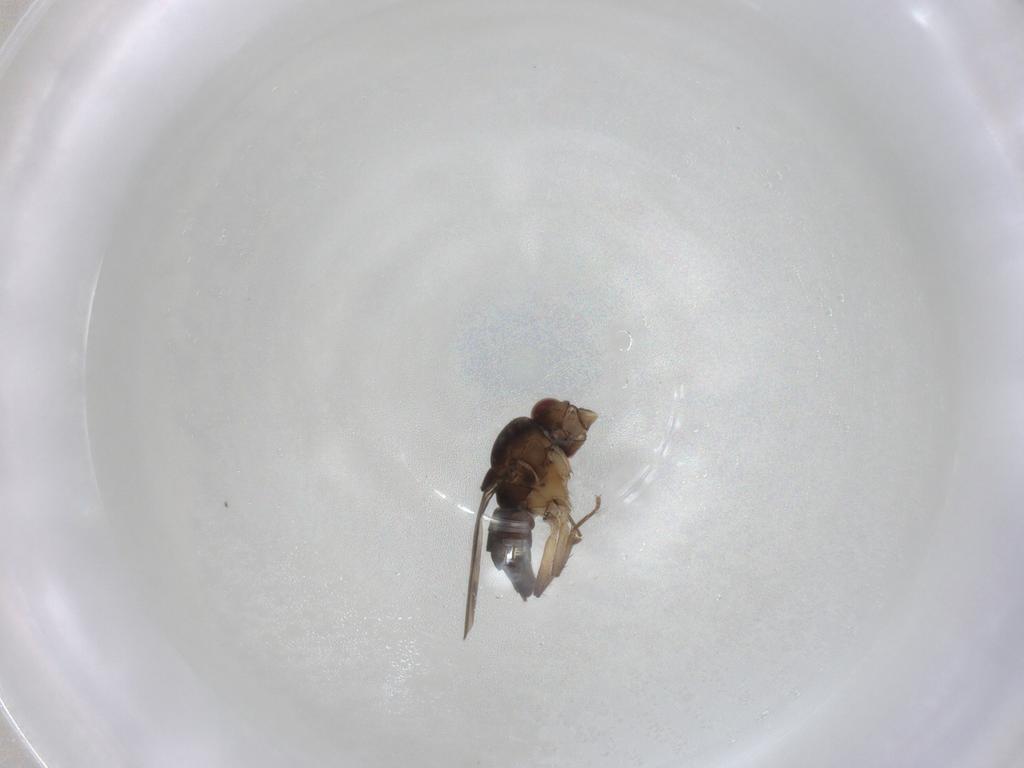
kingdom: Animalia
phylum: Arthropoda
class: Insecta
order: Diptera
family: Sphaeroceridae
